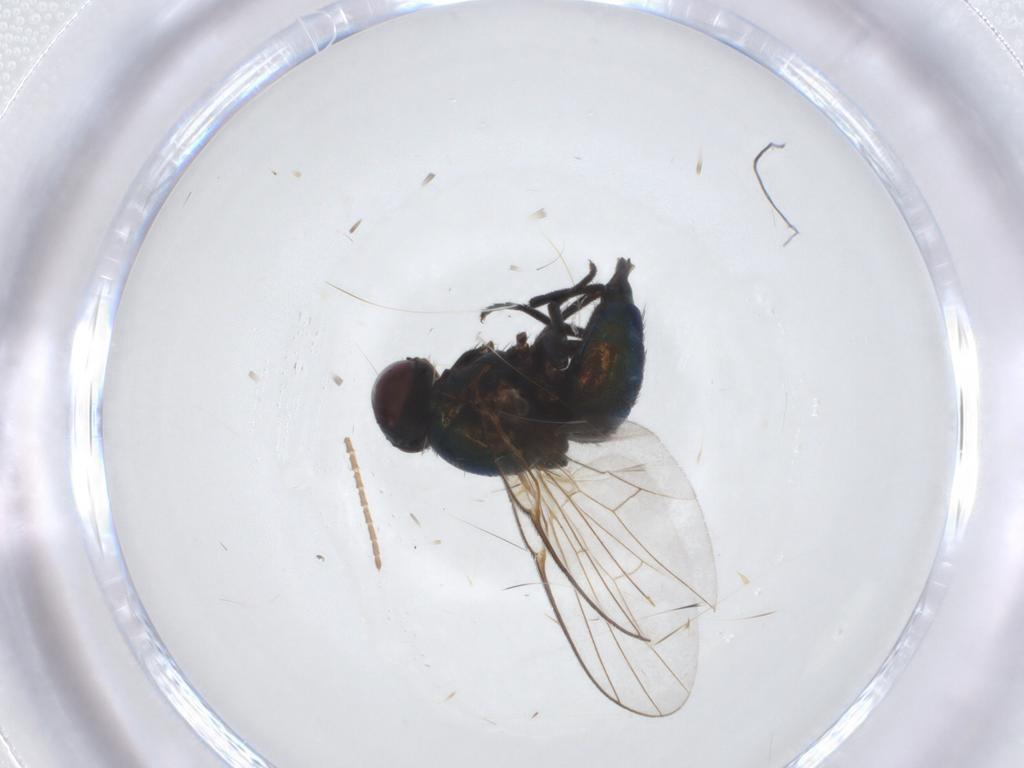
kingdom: Animalia
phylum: Arthropoda
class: Insecta
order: Diptera
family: Agromyzidae
